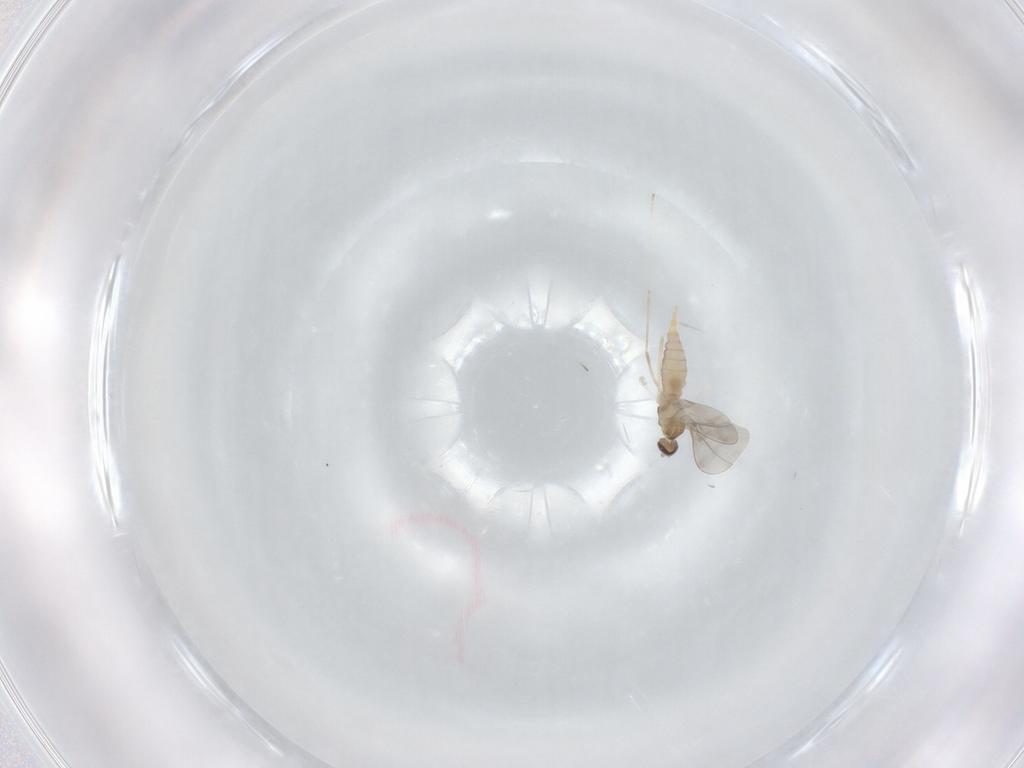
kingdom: Animalia
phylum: Arthropoda
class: Insecta
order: Diptera
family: Cecidomyiidae
